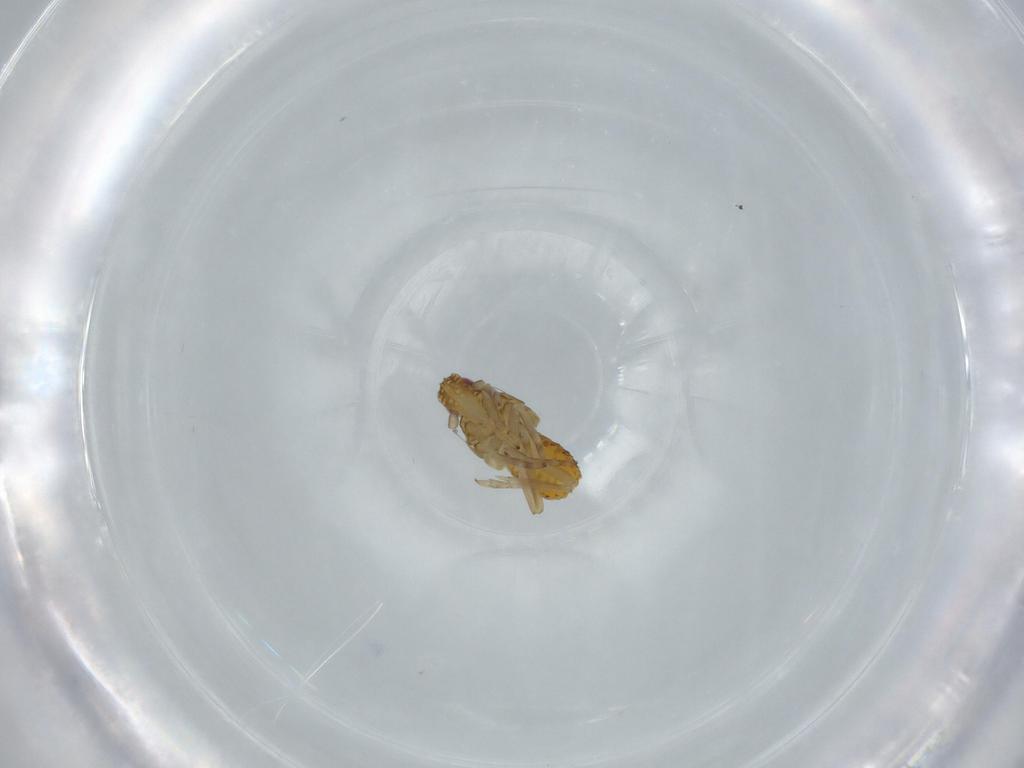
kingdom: Animalia
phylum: Arthropoda
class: Insecta
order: Hemiptera
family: Delphacidae
